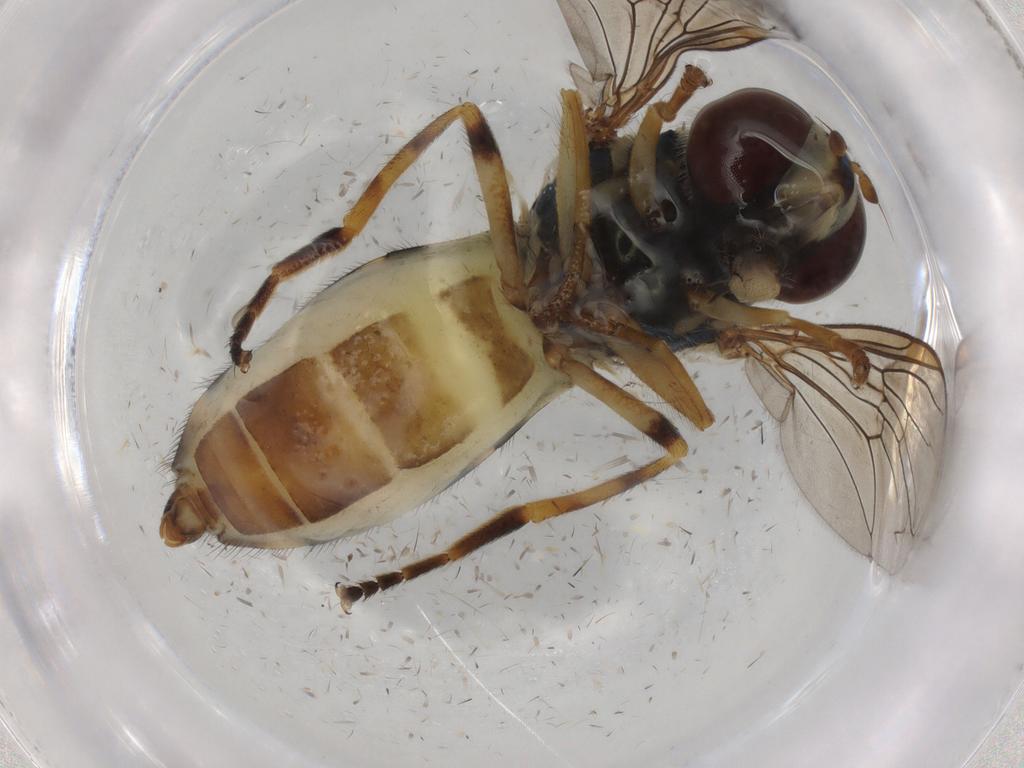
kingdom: Animalia
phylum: Arthropoda
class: Insecta
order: Diptera
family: Syrphidae
